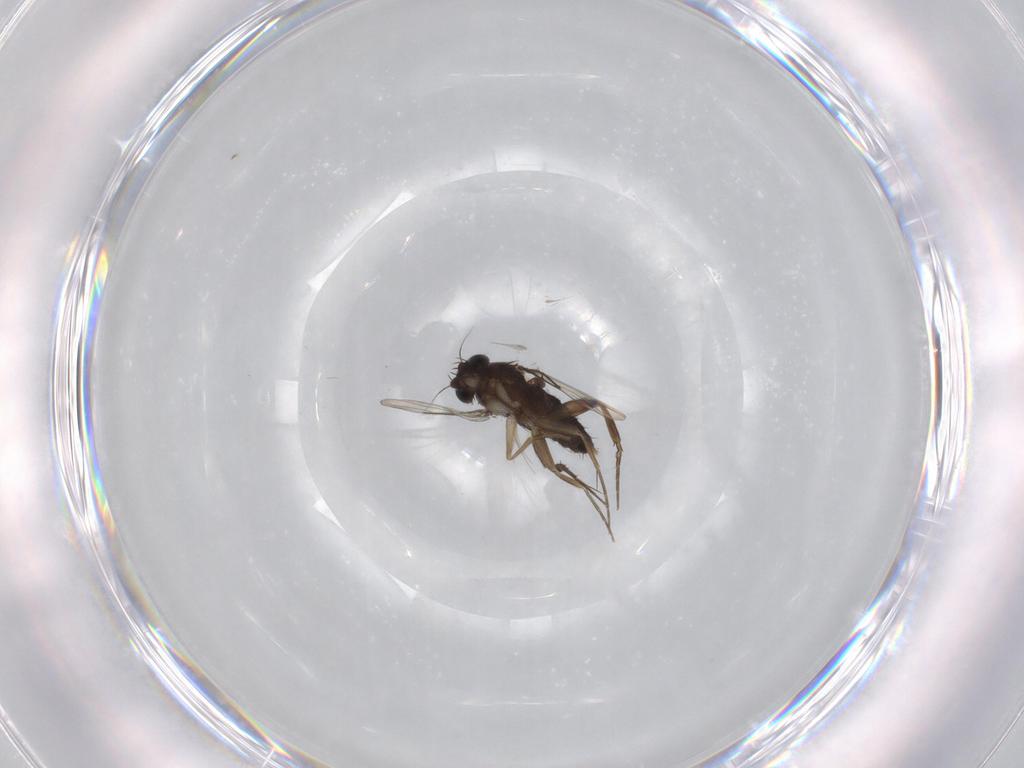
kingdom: Animalia
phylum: Arthropoda
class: Insecta
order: Diptera
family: Phoridae
